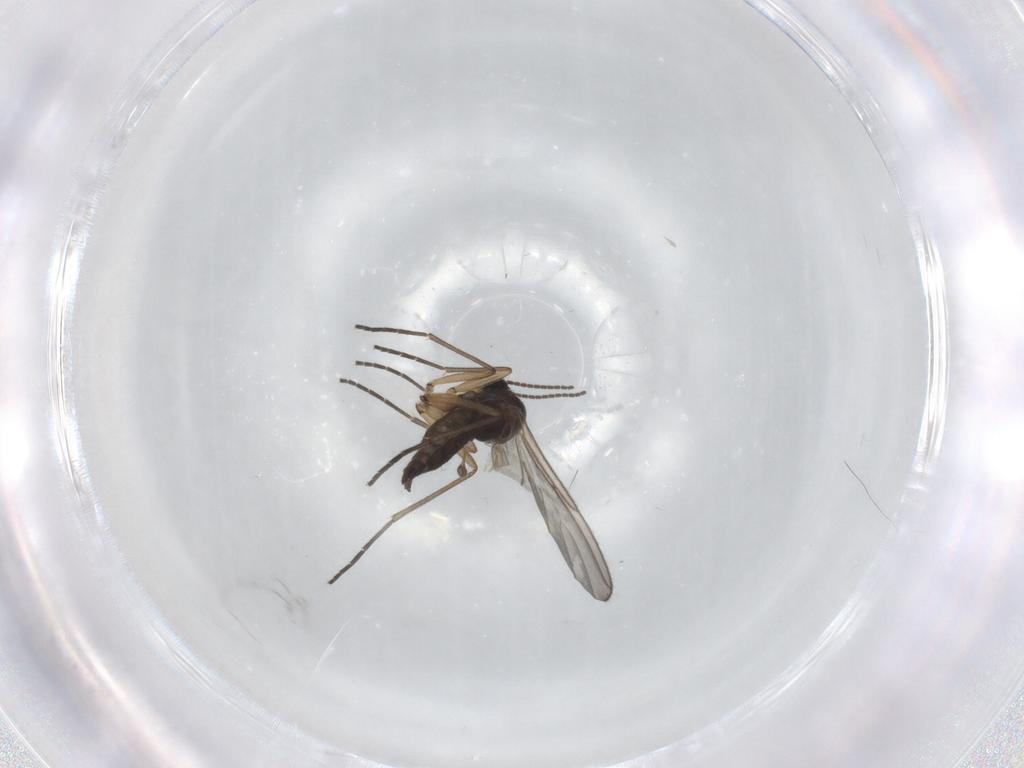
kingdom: Animalia
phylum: Arthropoda
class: Insecta
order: Diptera
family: Sciaridae
